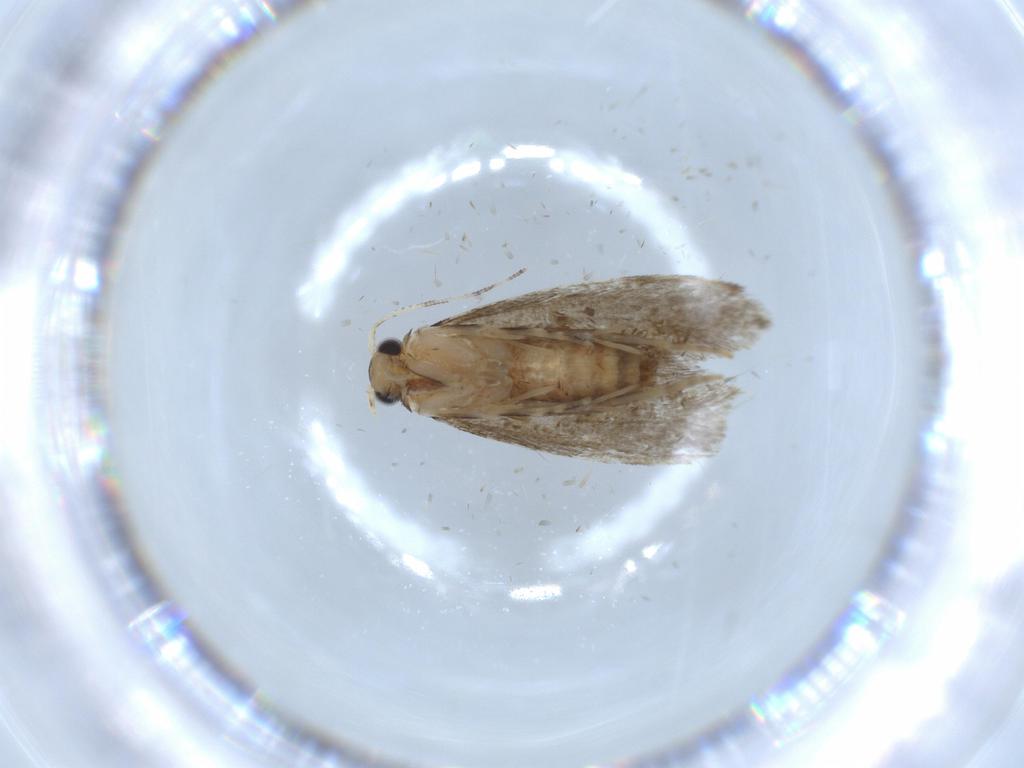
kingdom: Animalia
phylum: Arthropoda
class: Insecta
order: Lepidoptera
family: Tineidae
